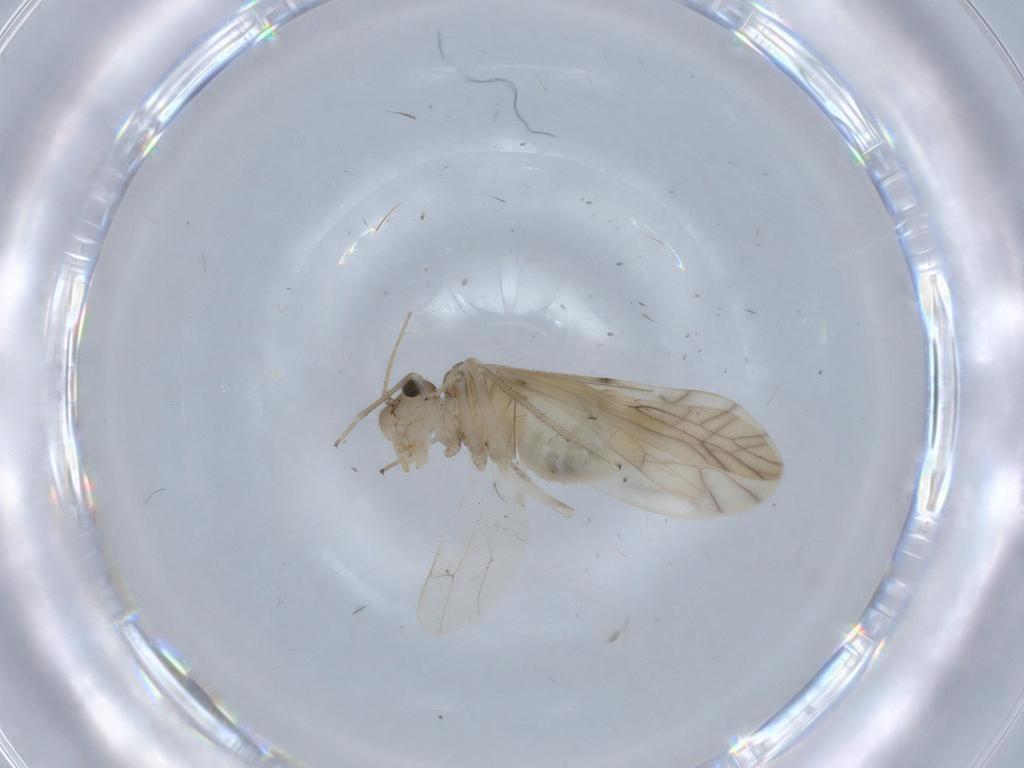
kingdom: Animalia
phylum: Arthropoda
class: Insecta
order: Psocodea
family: Caeciliusidae
